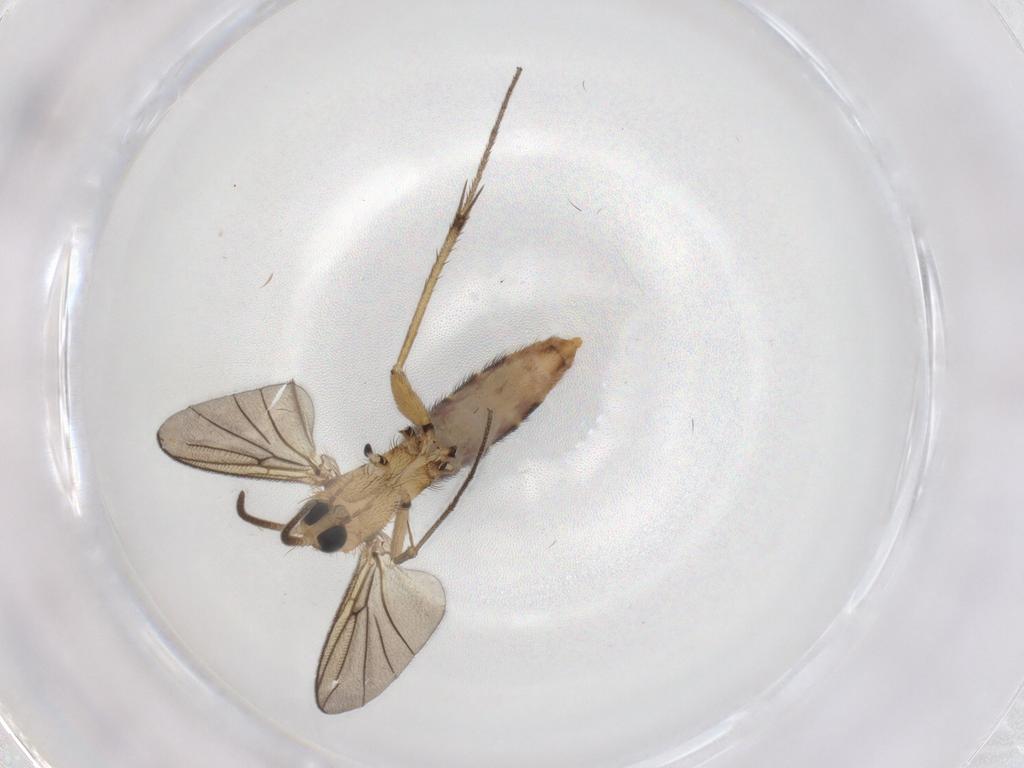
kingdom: Animalia
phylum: Arthropoda
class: Insecta
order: Diptera
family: Mycetophilidae
